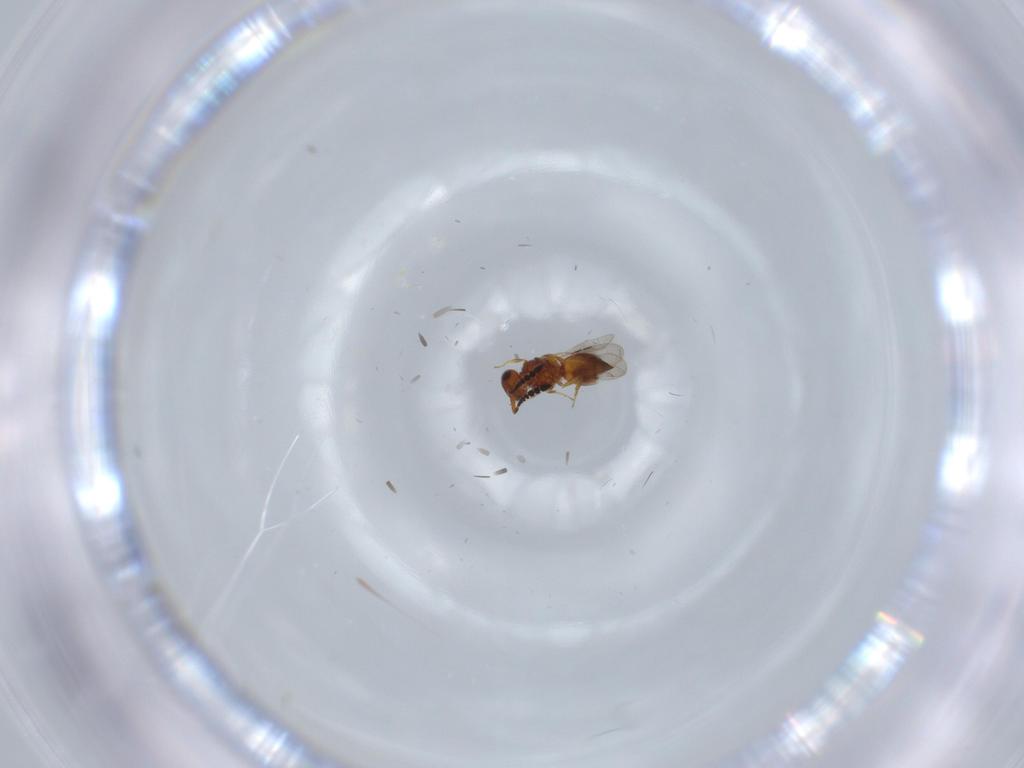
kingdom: Animalia
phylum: Arthropoda
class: Insecta
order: Hymenoptera
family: Ceraphronidae
